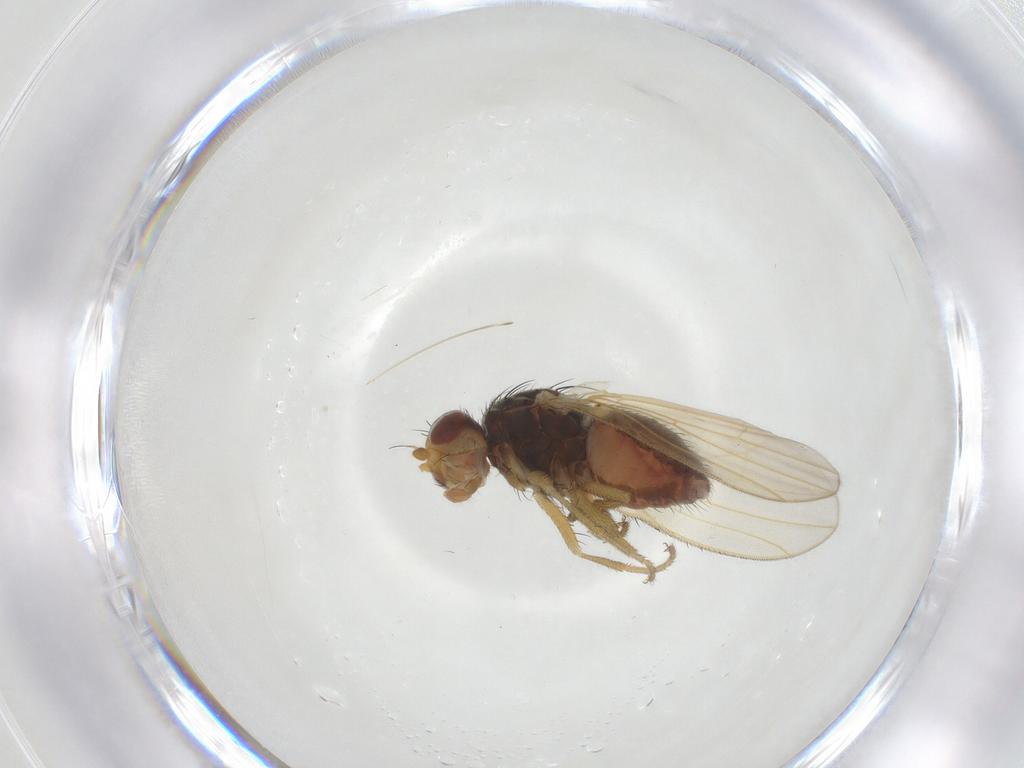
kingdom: Animalia
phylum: Arthropoda
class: Insecta
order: Diptera
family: Heleomyzidae
